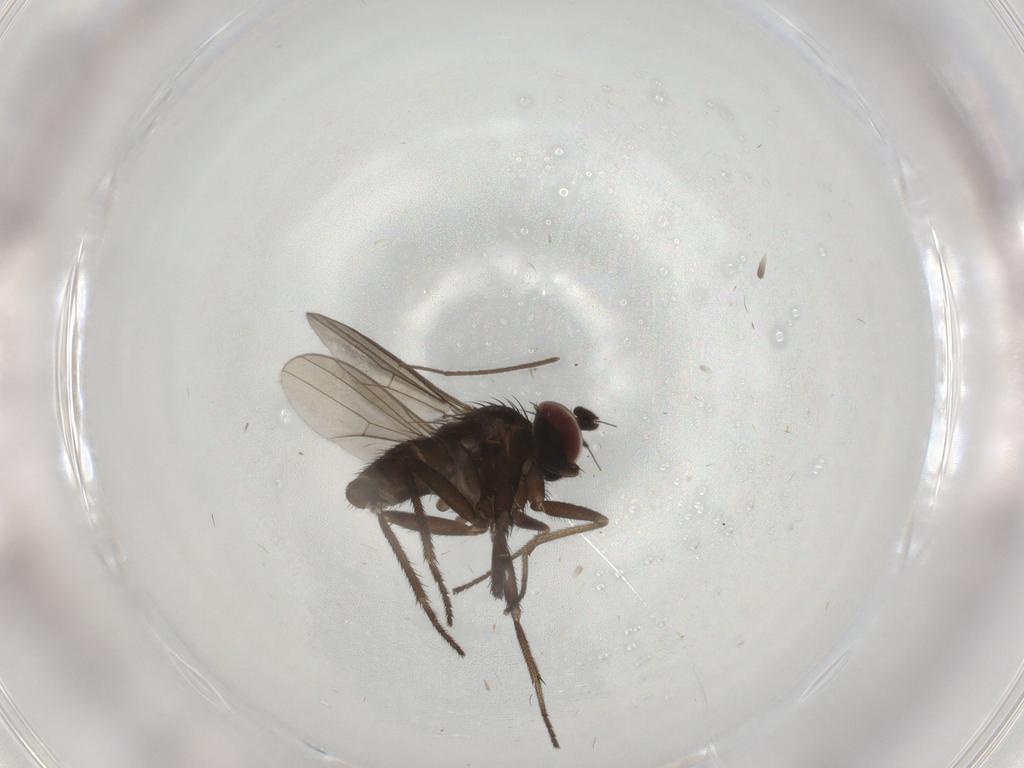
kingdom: Animalia
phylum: Arthropoda
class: Insecta
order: Diptera
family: Dolichopodidae
